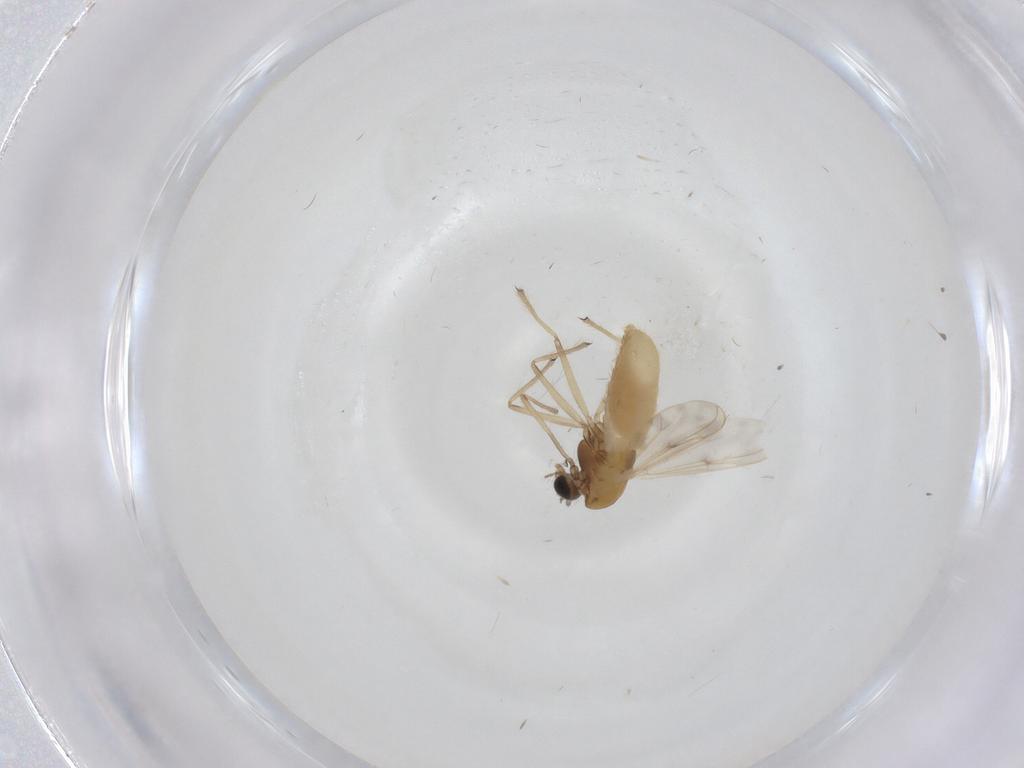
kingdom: Animalia
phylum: Arthropoda
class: Insecta
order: Diptera
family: Chironomidae
